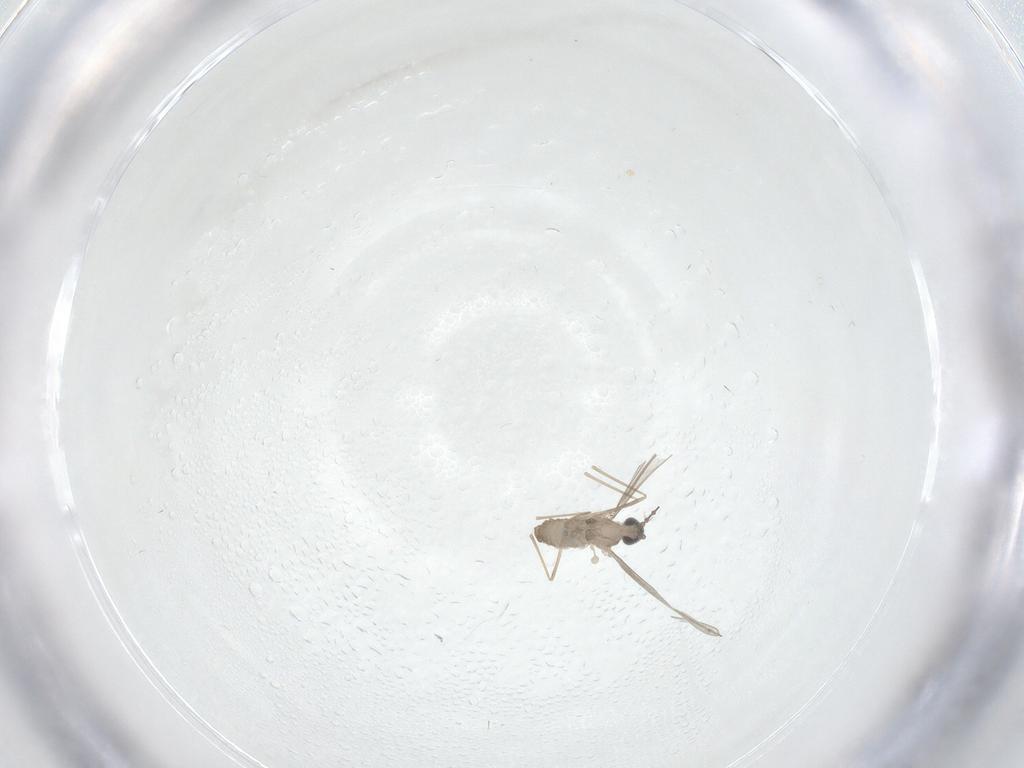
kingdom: Animalia
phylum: Arthropoda
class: Insecta
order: Diptera
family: Cecidomyiidae
